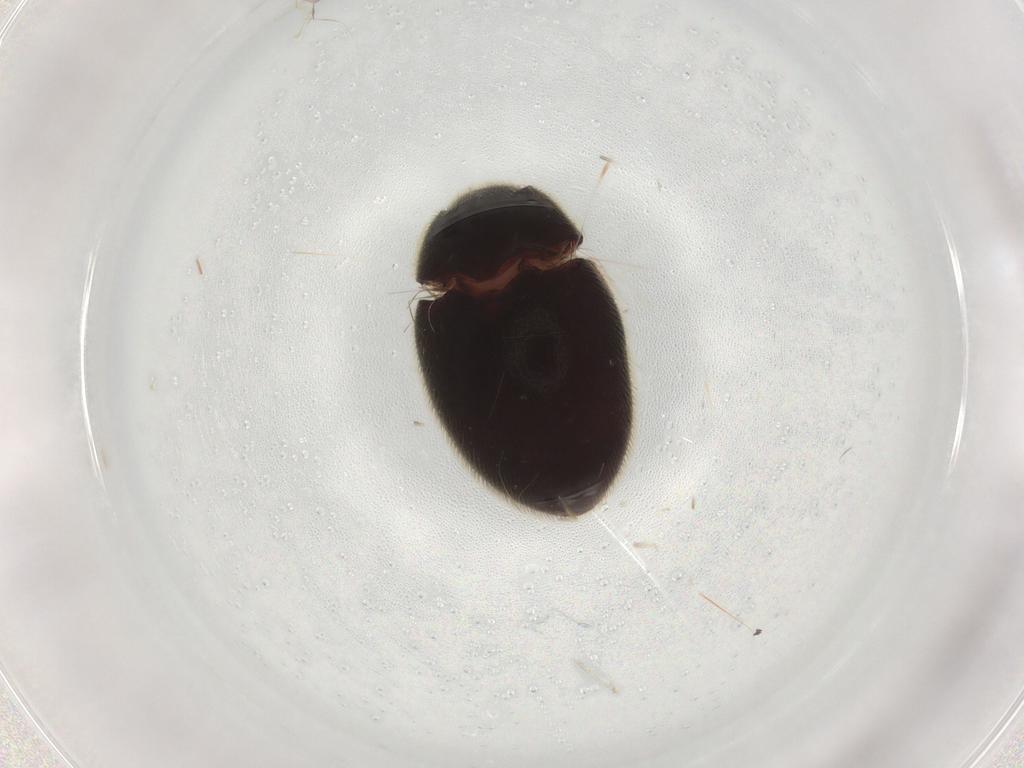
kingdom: Animalia
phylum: Arthropoda
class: Insecta
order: Coleoptera
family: Limnichidae
